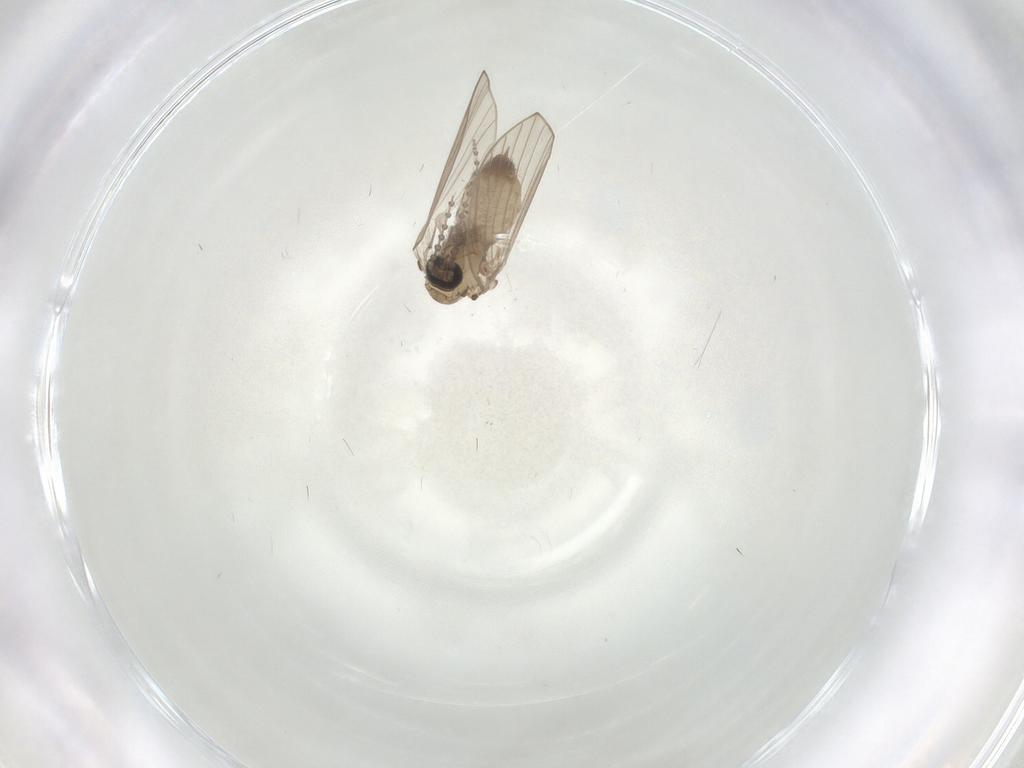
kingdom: Animalia
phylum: Arthropoda
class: Insecta
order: Diptera
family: Psychodidae
